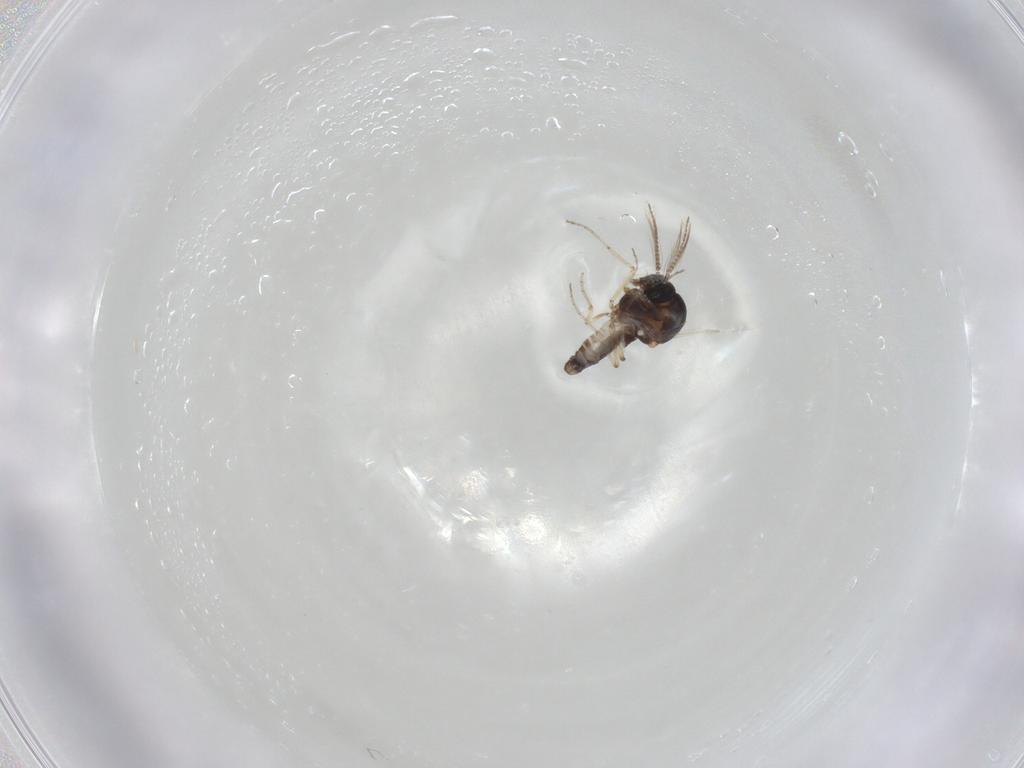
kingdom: Animalia
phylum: Arthropoda
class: Insecta
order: Diptera
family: Ceratopogonidae
